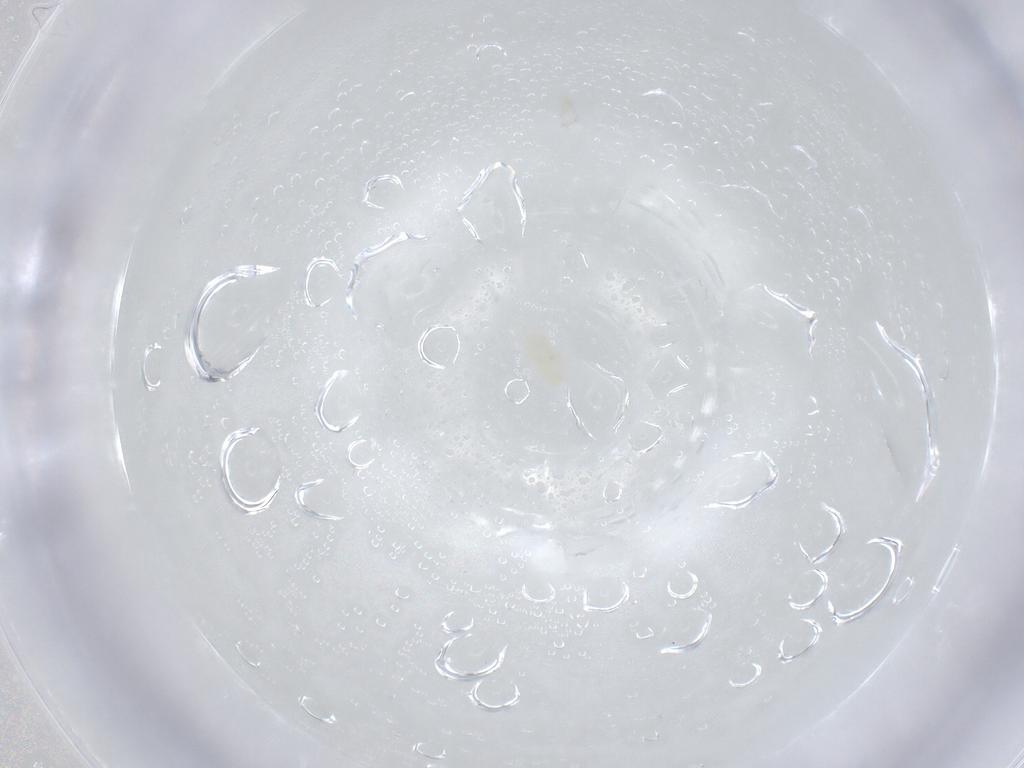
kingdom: Animalia
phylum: Arthropoda
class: Arachnida
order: Trombidiformes
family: Eupodidae
